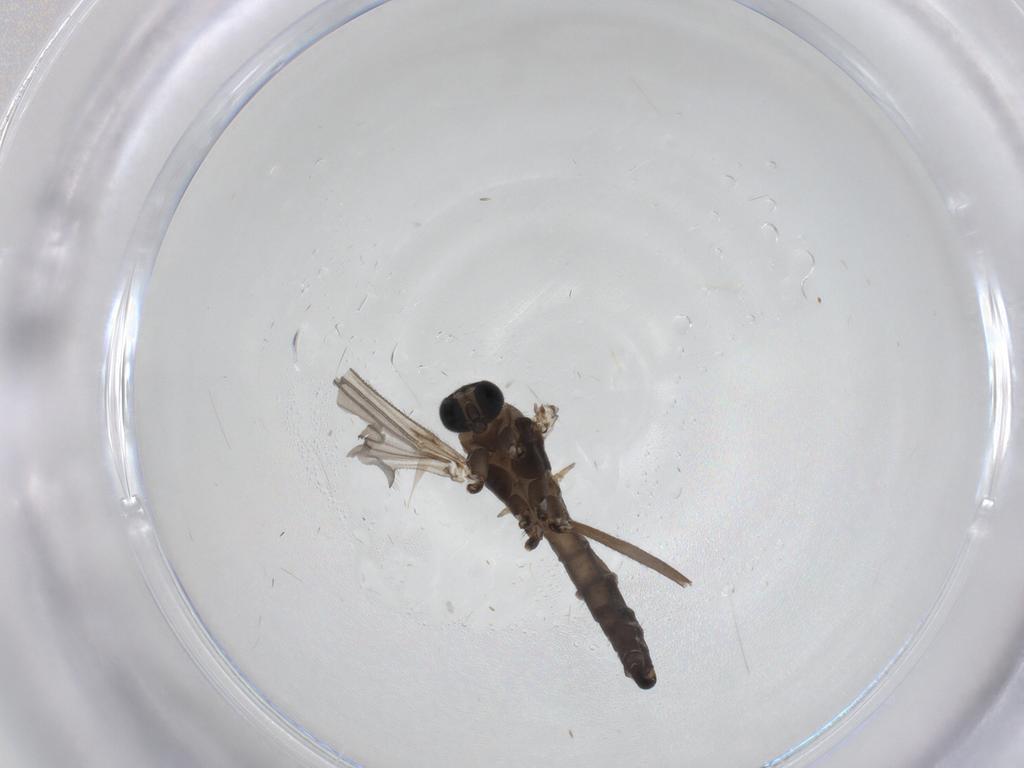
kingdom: Animalia
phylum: Arthropoda
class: Insecta
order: Diptera
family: Sciaridae
